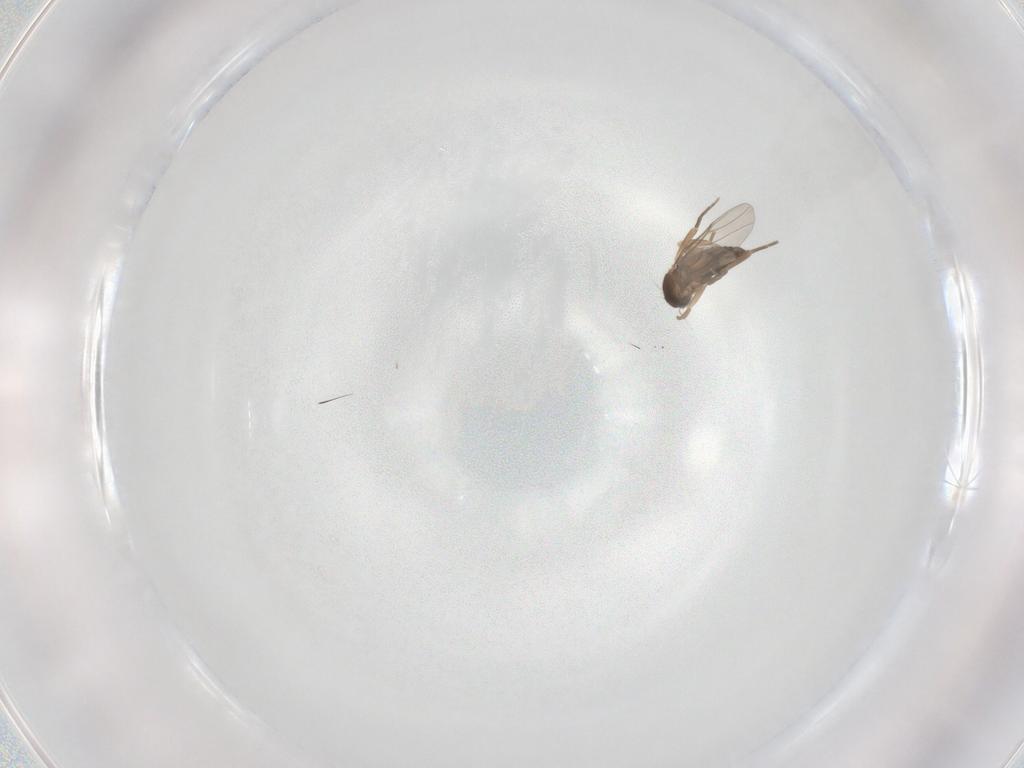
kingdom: Animalia
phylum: Arthropoda
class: Insecta
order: Diptera
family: Phoridae
